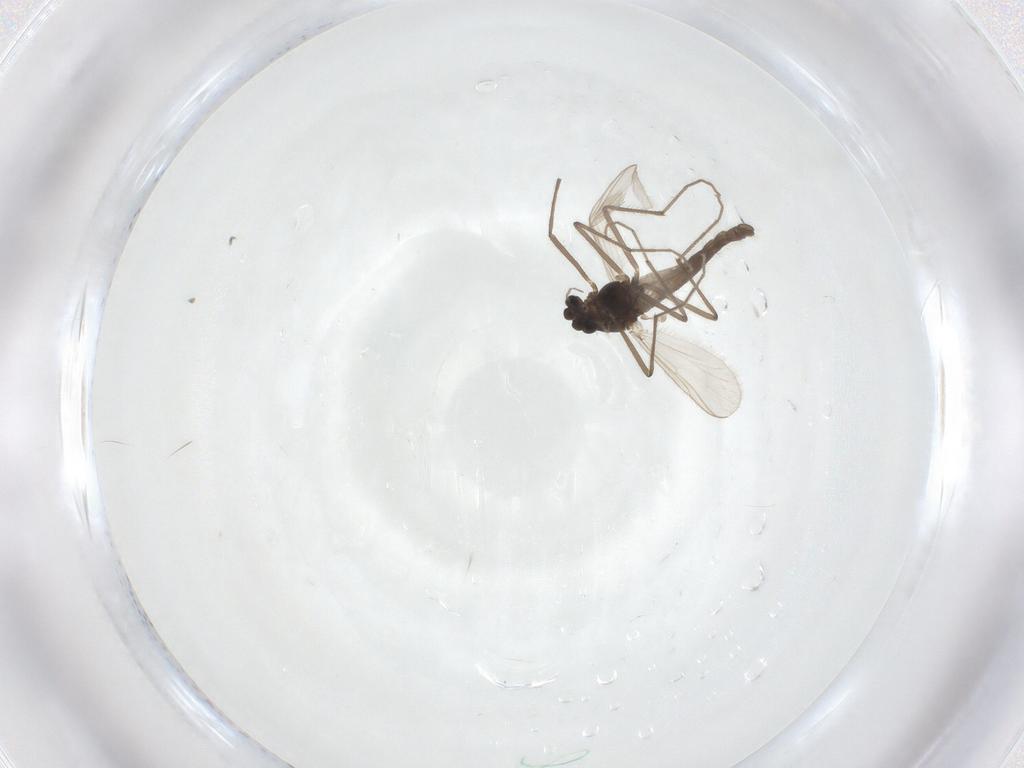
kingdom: Animalia
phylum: Arthropoda
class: Insecta
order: Diptera
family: Chironomidae
